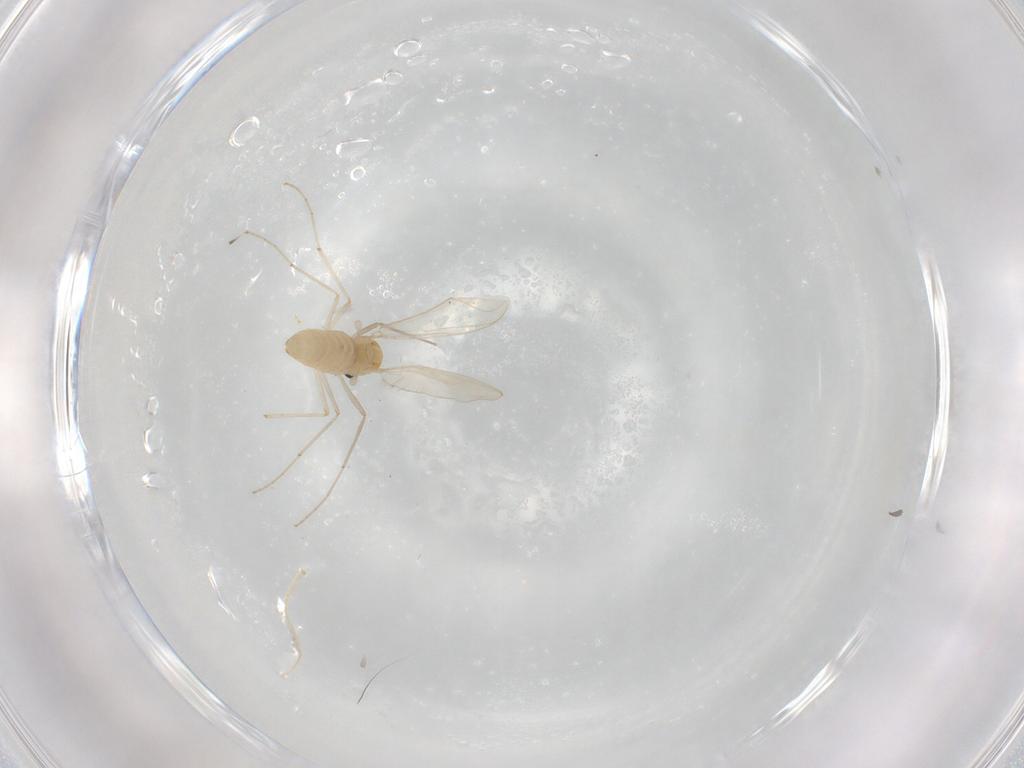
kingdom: Animalia
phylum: Arthropoda
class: Insecta
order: Diptera
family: Chironomidae
